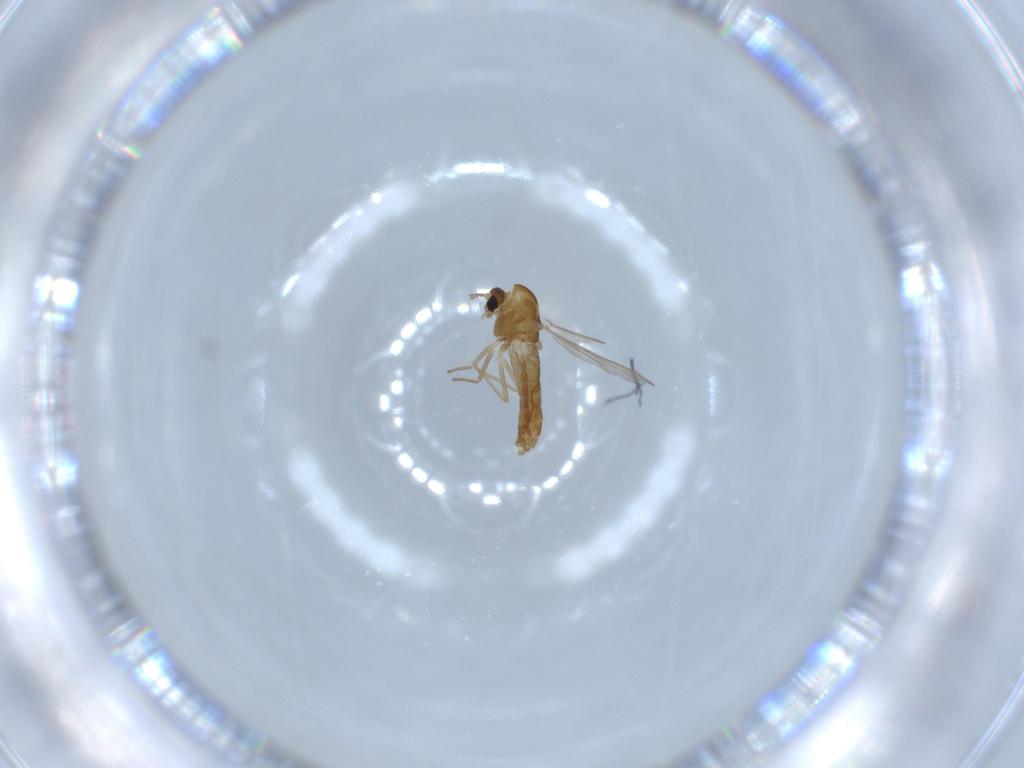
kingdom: Animalia
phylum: Arthropoda
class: Insecta
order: Diptera
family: Chironomidae
